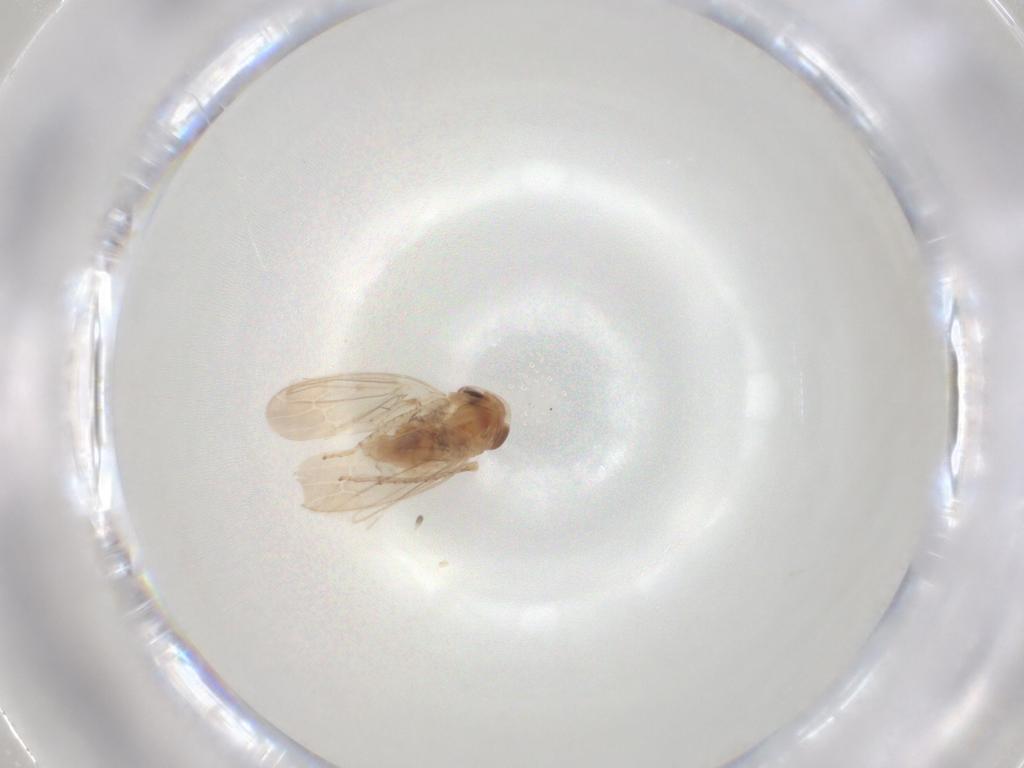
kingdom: Animalia
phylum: Arthropoda
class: Insecta
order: Hemiptera
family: Cicadellidae
